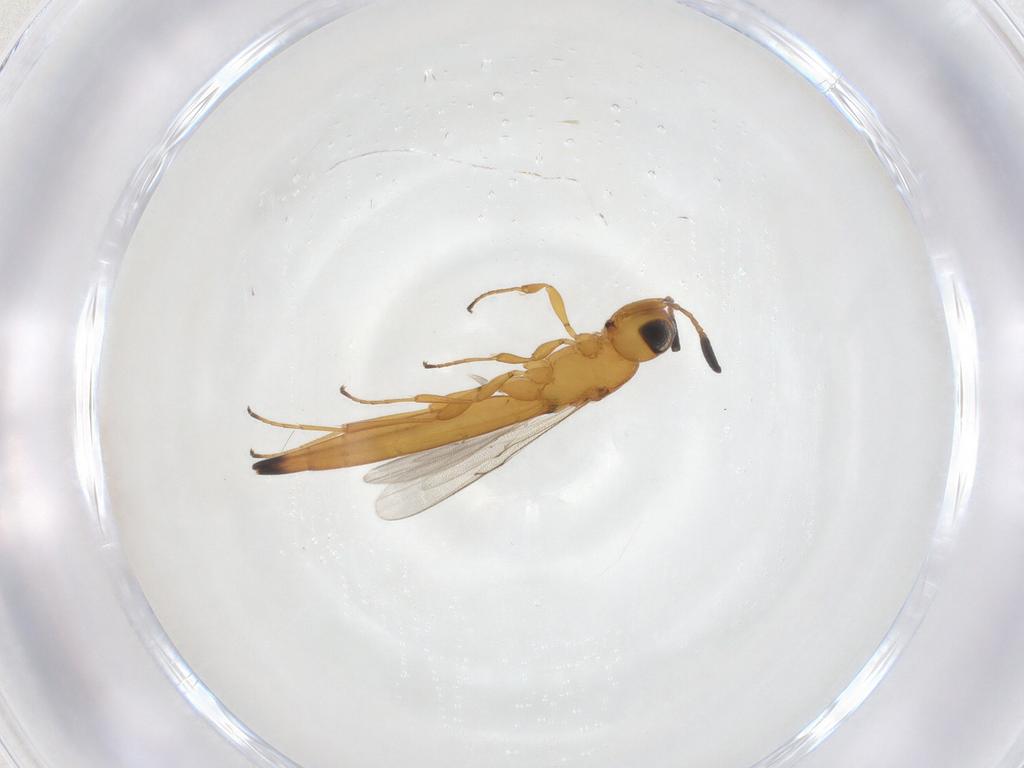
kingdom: Animalia
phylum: Arthropoda
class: Insecta
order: Hymenoptera
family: Scelionidae
